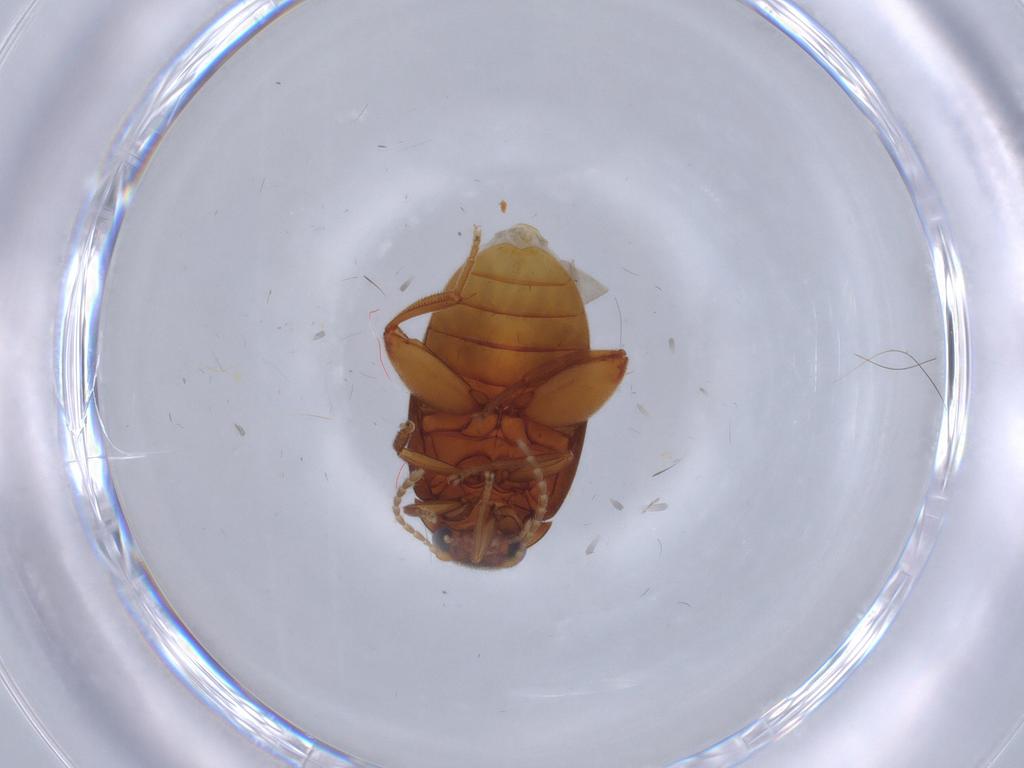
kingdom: Animalia
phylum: Arthropoda
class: Insecta
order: Coleoptera
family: Scirtidae
